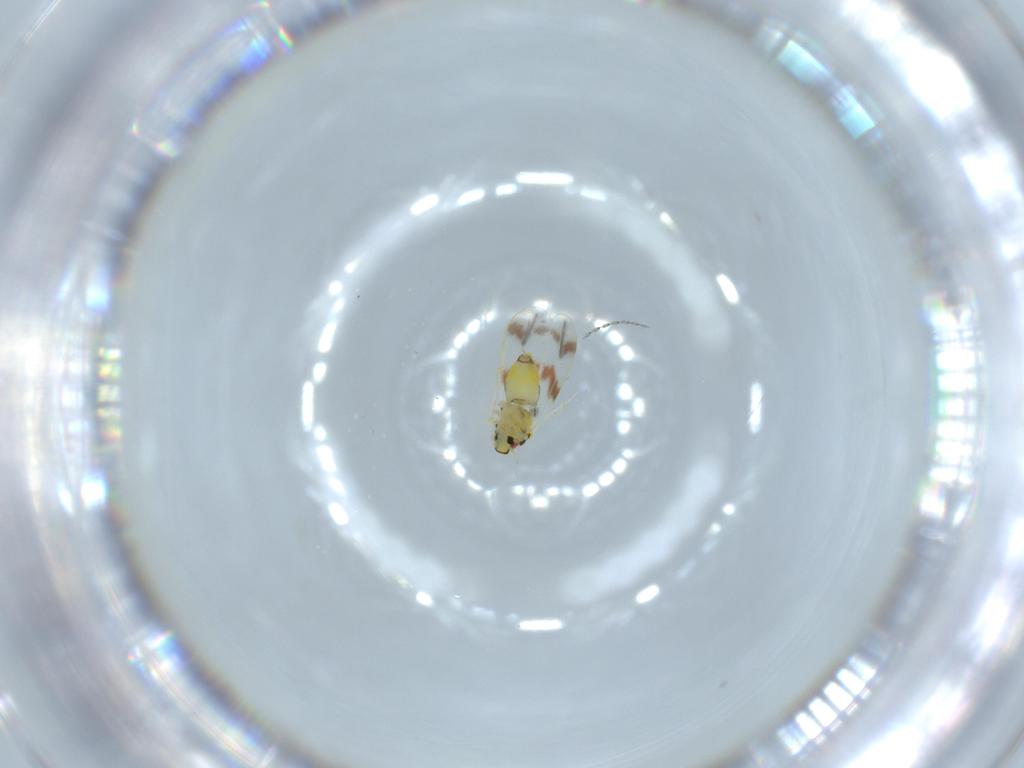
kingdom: Animalia
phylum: Arthropoda
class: Insecta
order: Hemiptera
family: Aleyrodidae
